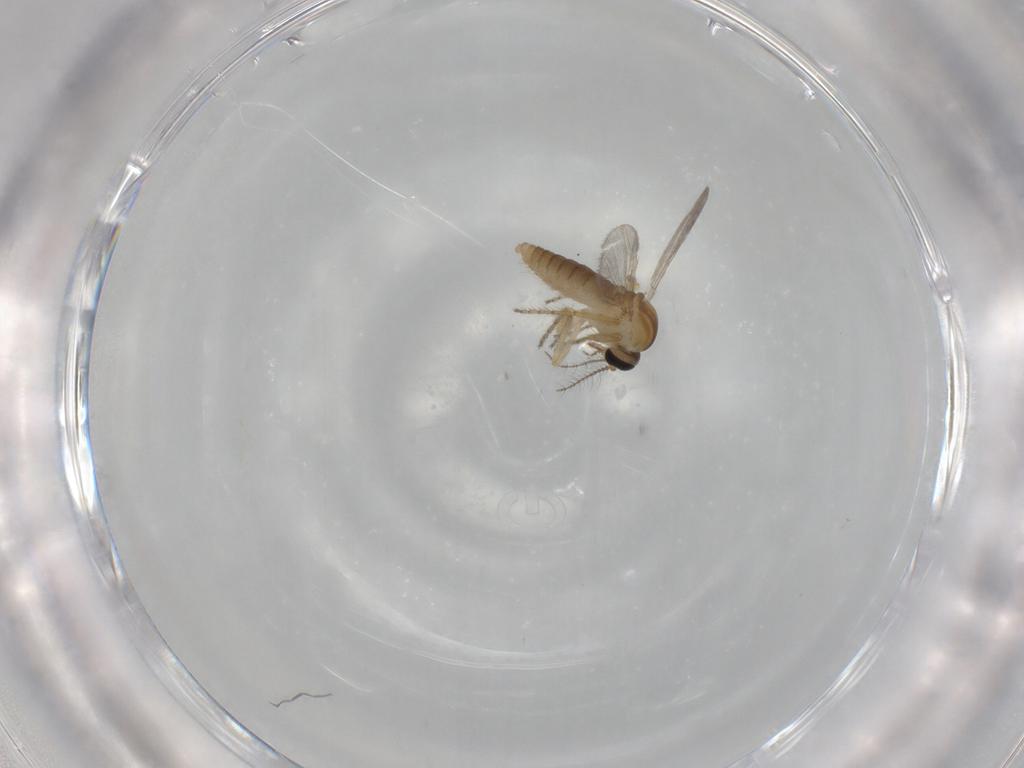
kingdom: Animalia
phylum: Arthropoda
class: Insecta
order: Diptera
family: Ceratopogonidae
